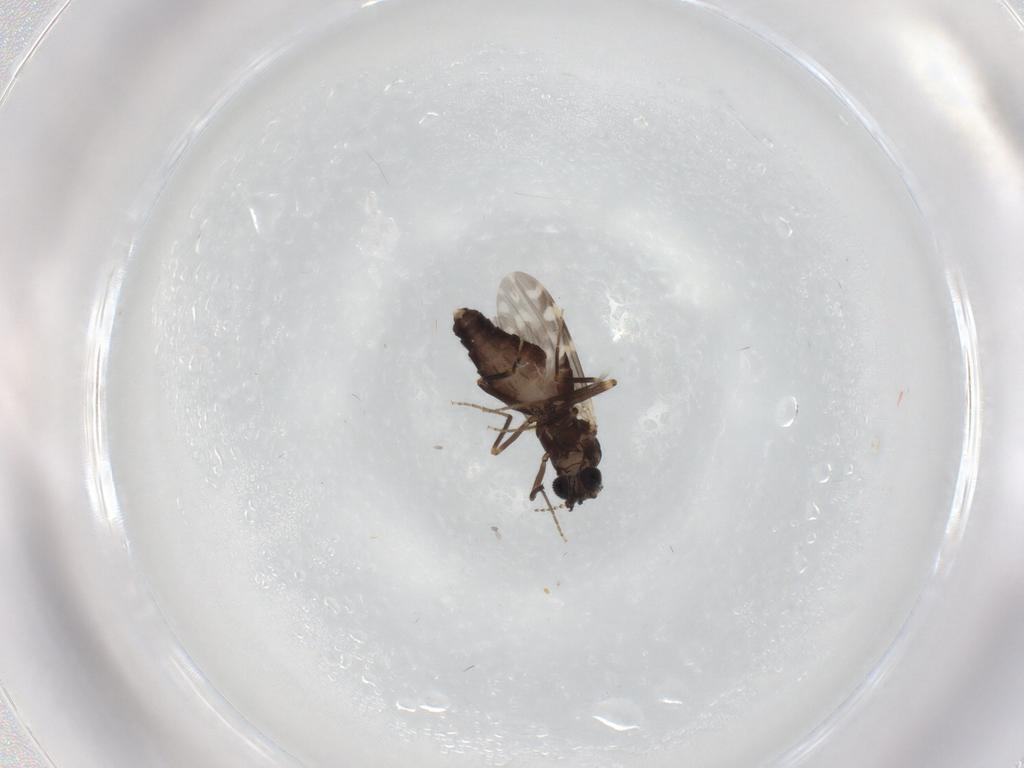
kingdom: Animalia
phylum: Arthropoda
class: Insecta
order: Diptera
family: Ceratopogonidae
